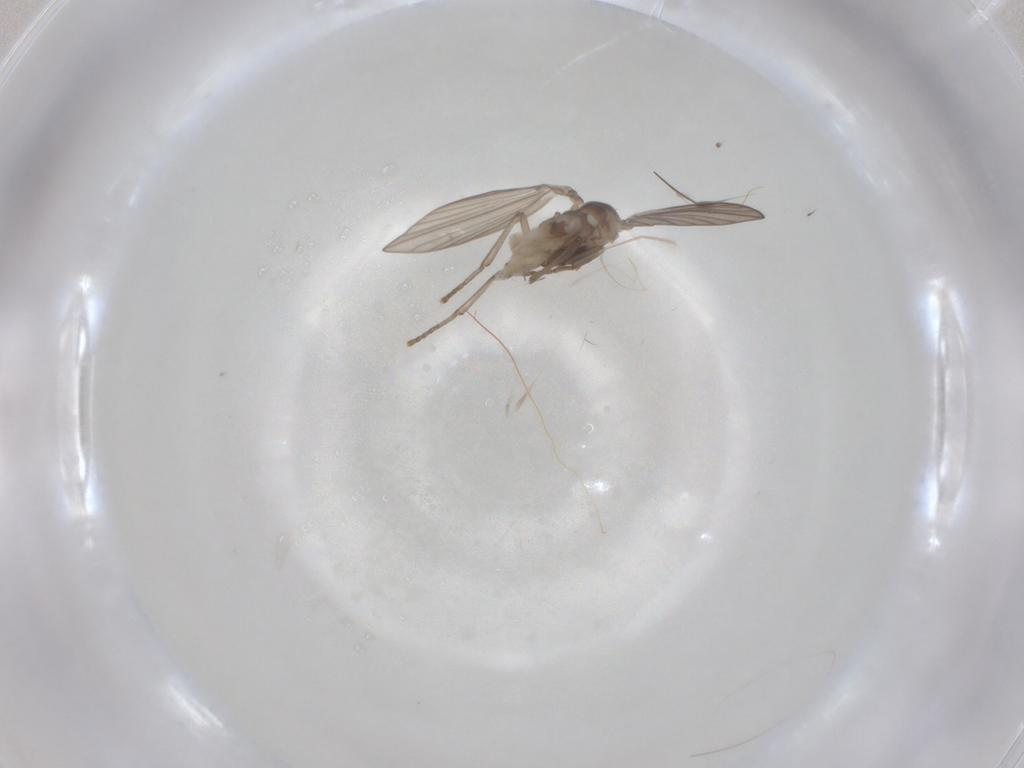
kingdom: Animalia
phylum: Arthropoda
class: Insecta
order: Diptera
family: Psychodidae
